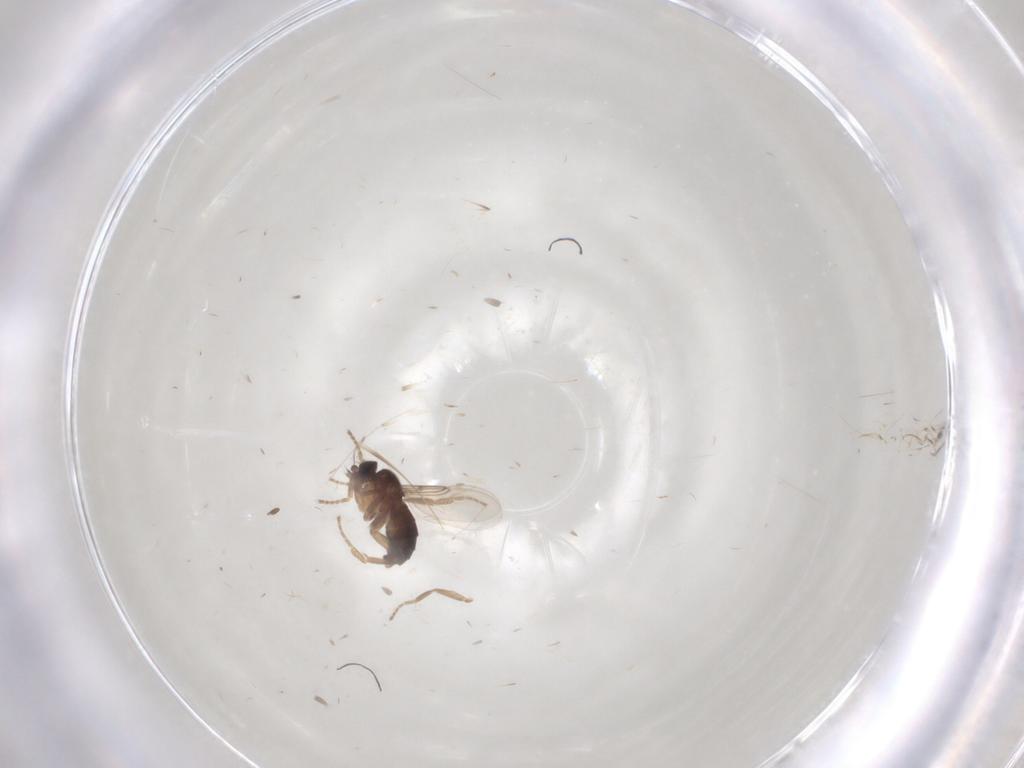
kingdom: Animalia
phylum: Arthropoda
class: Insecta
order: Diptera
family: Phoridae
